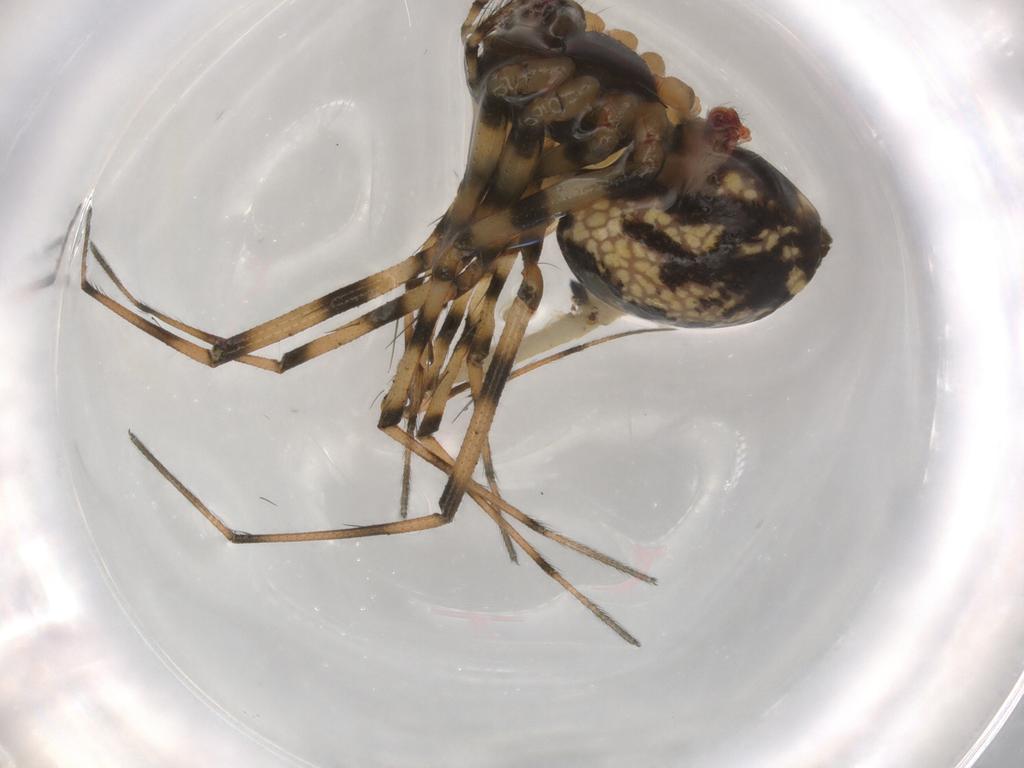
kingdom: Animalia
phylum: Arthropoda
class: Diplura
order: Diplura
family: Campodeidae
